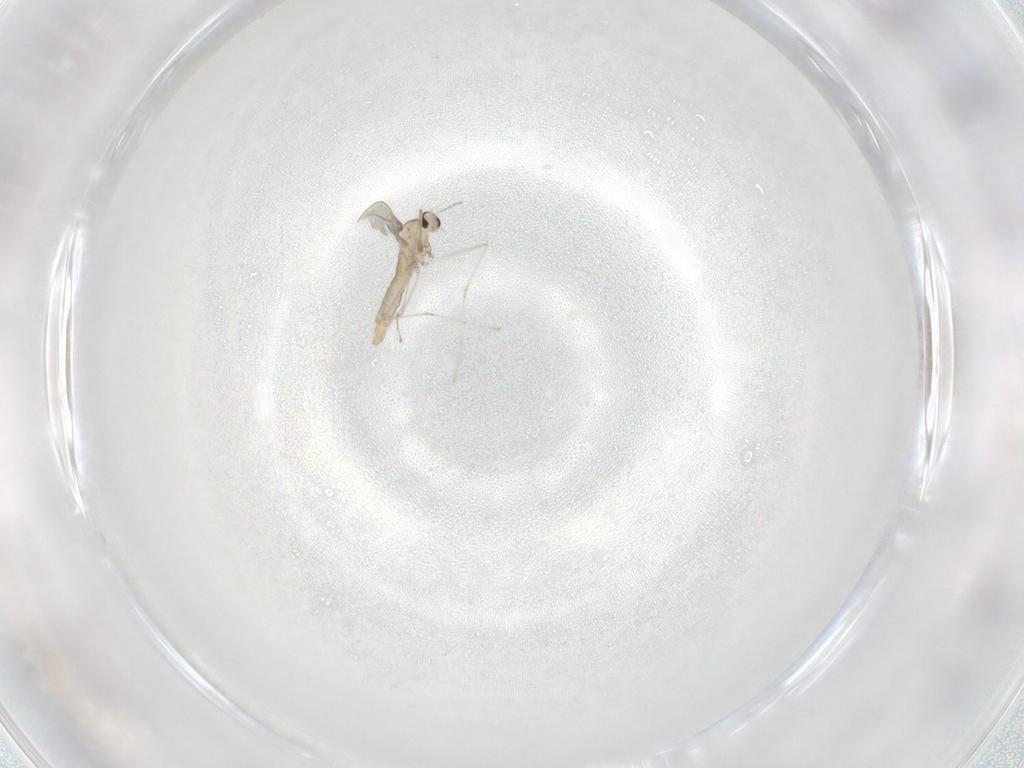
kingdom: Animalia
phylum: Arthropoda
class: Insecta
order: Diptera
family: Cecidomyiidae
